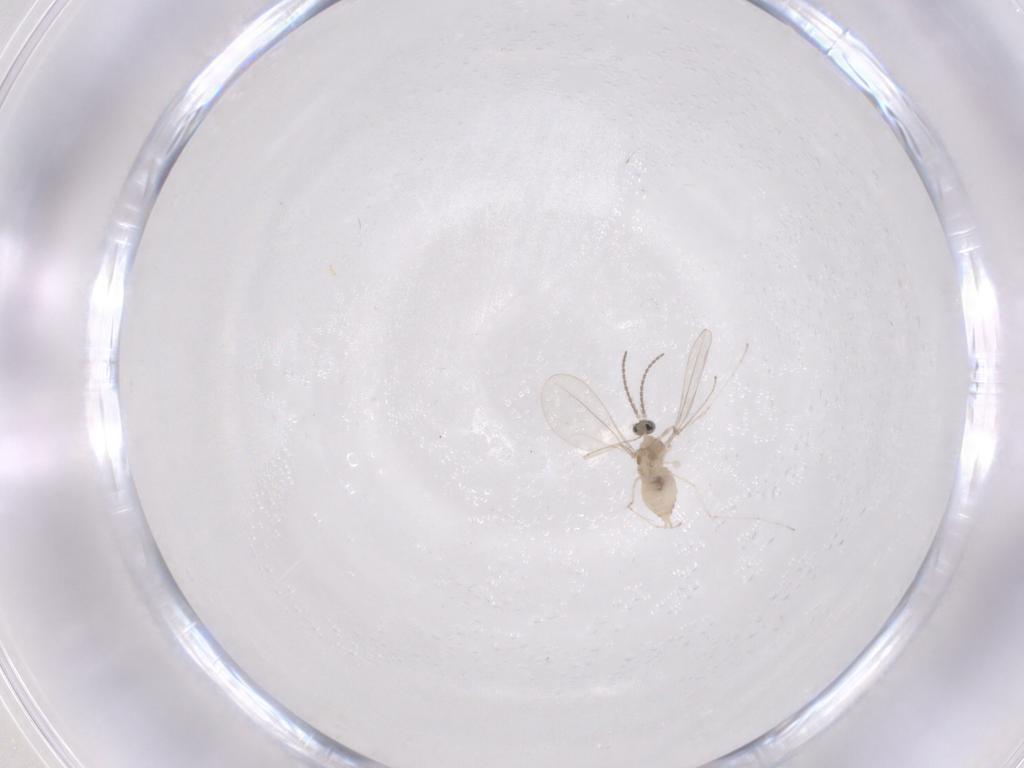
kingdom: Animalia
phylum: Arthropoda
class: Insecta
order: Diptera
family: Cecidomyiidae
